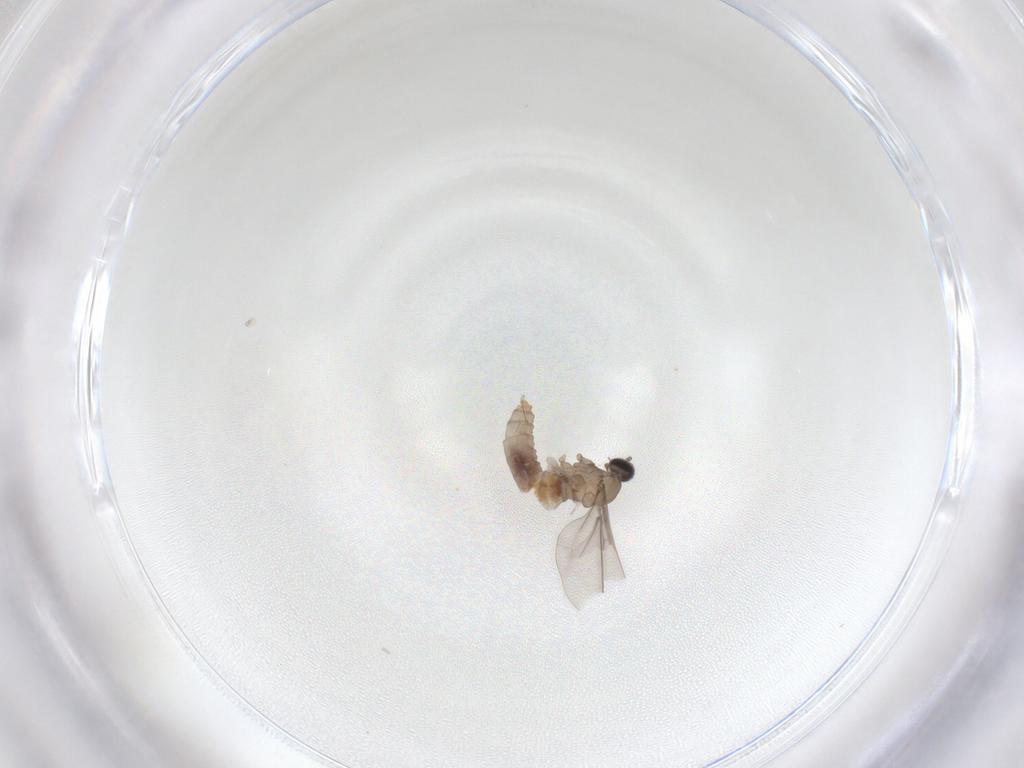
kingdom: Animalia
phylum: Arthropoda
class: Insecta
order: Diptera
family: Cecidomyiidae
